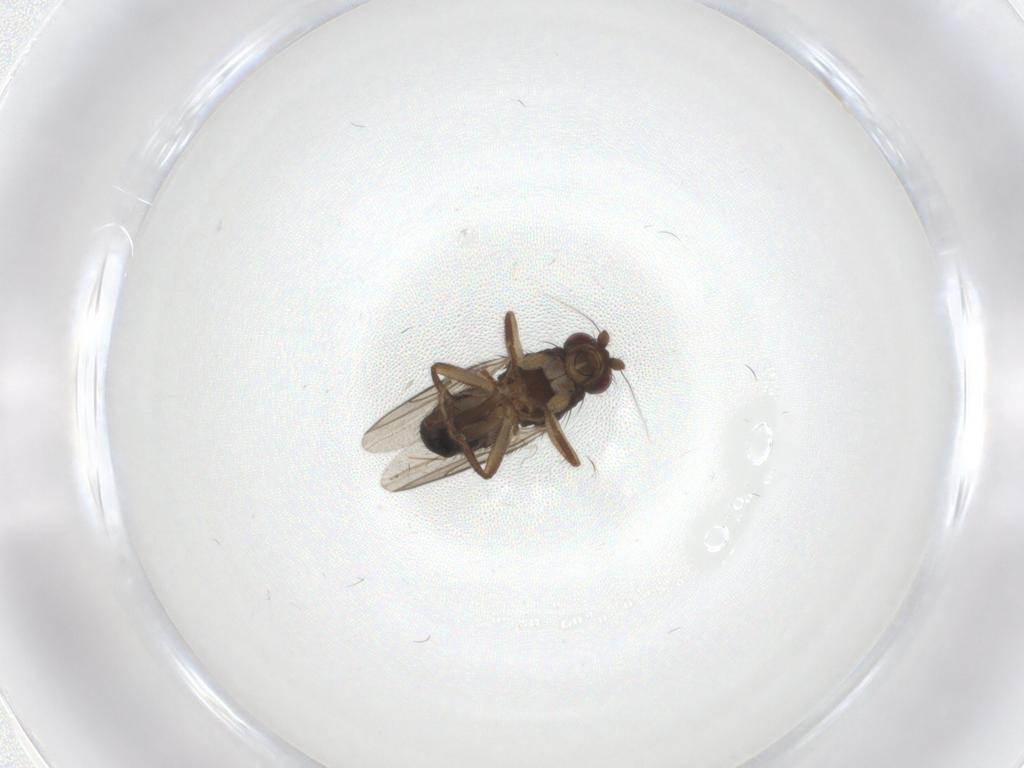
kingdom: Animalia
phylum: Arthropoda
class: Insecta
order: Diptera
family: Sphaeroceridae
